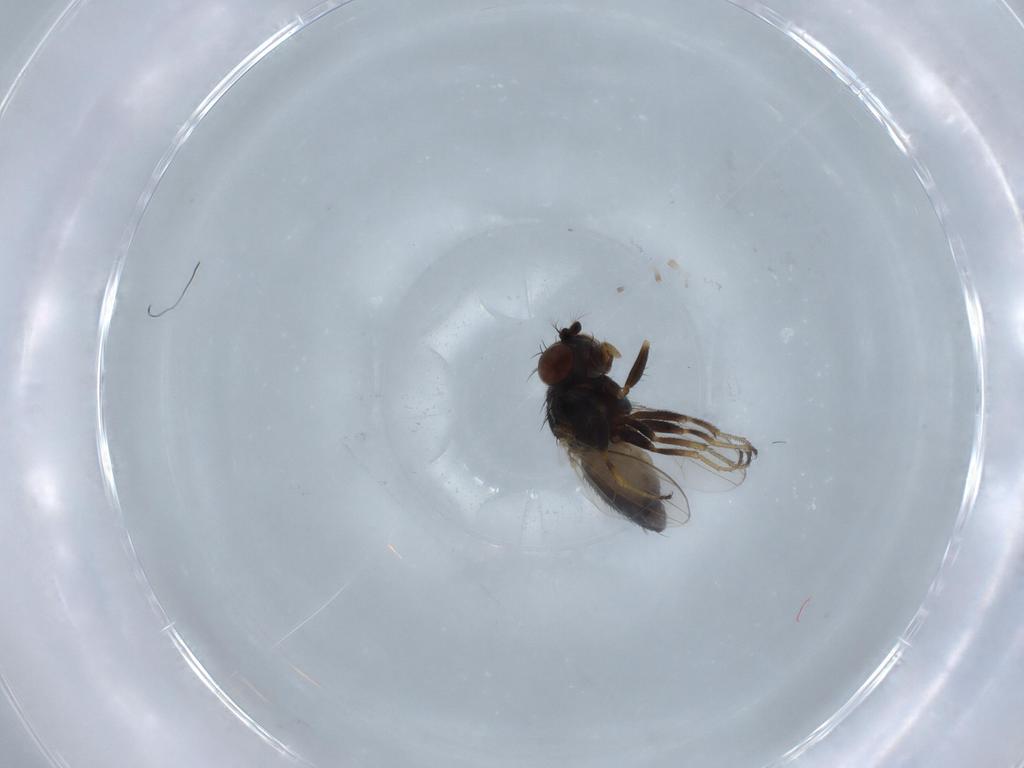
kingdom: Animalia
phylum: Arthropoda
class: Insecta
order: Diptera
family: Ephydridae
